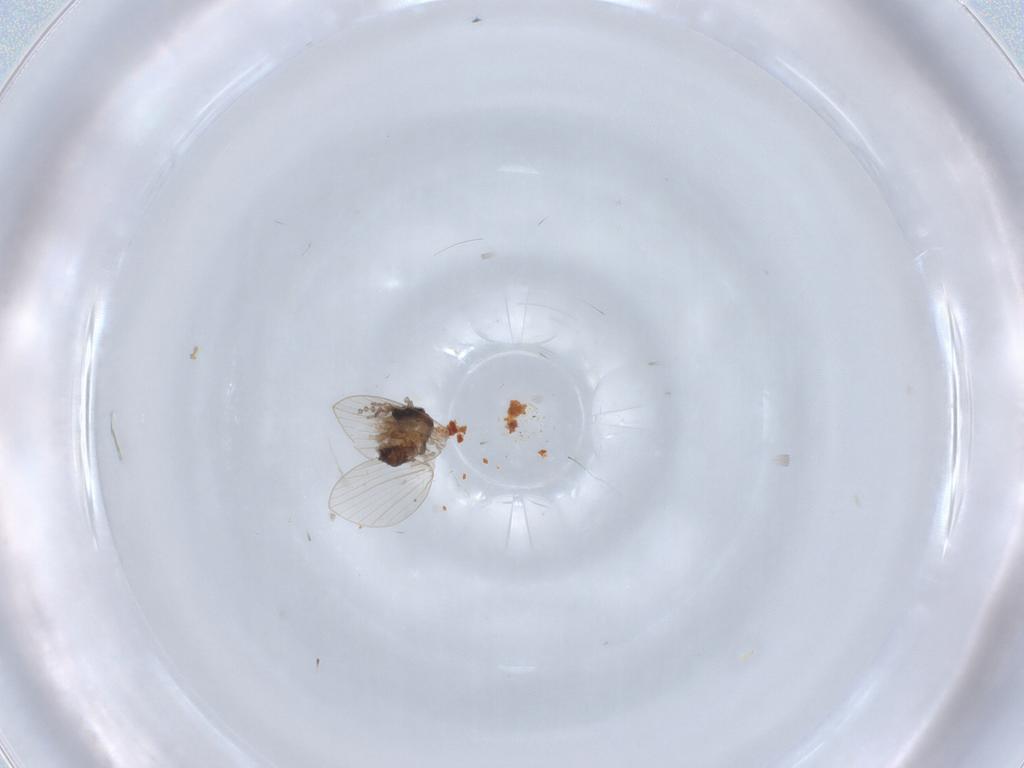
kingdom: Animalia
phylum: Arthropoda
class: Insecta
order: Diptera
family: Psychodidae
